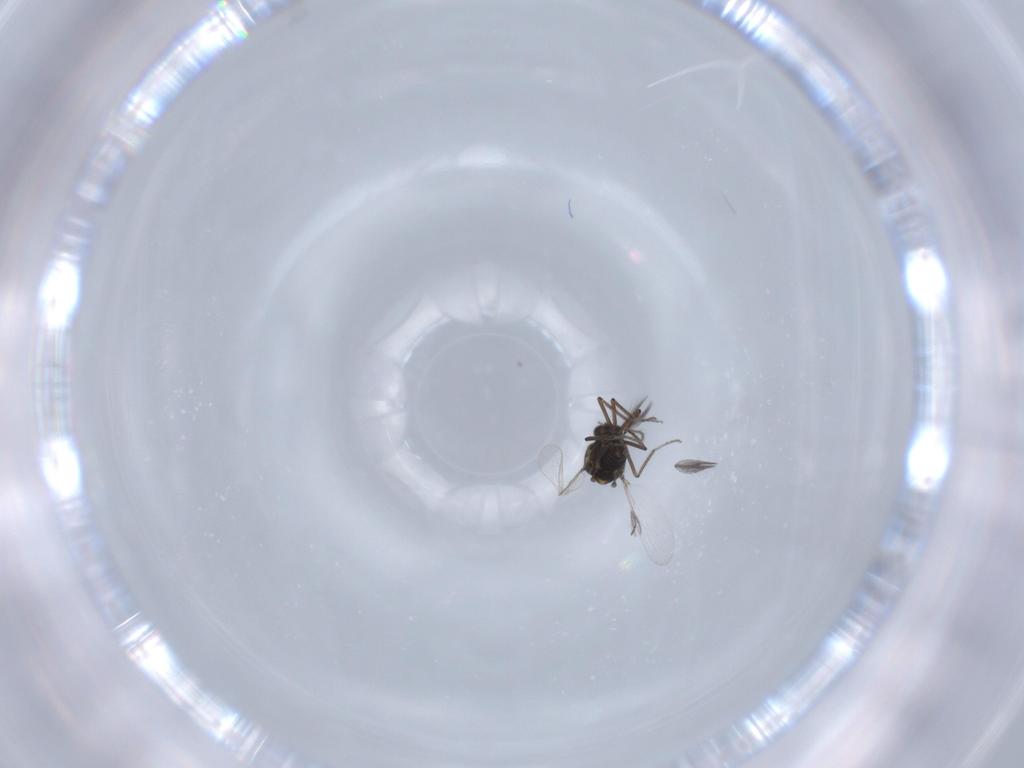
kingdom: Animalia
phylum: Arthropoda
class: Insecta
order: Diptera
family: Ceratopogonidae
